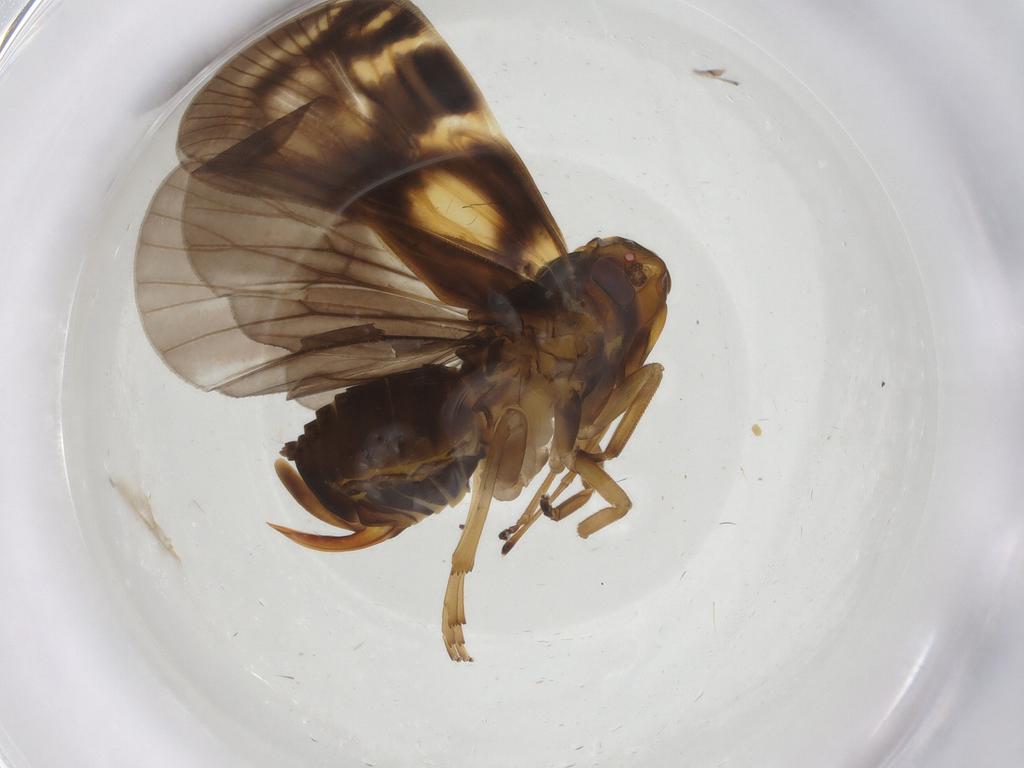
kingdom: Animalia
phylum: Arthropoda
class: Insecta
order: Hemiptera
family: Cixiidae
